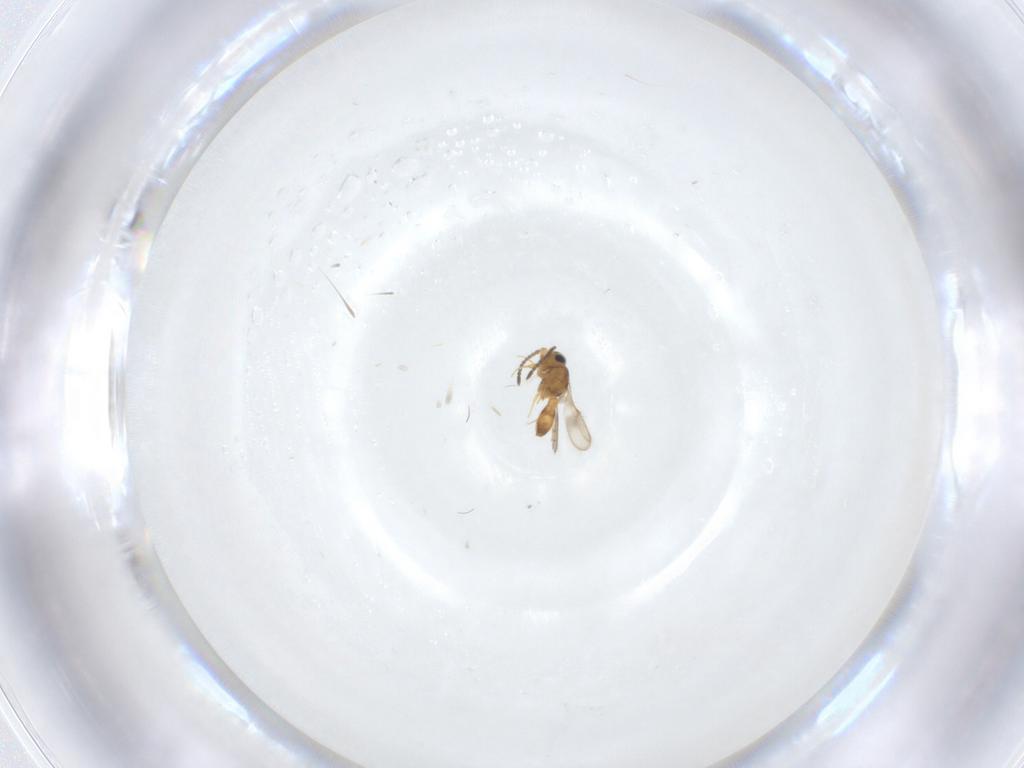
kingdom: Animalia
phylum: Arthropoda
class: Insecta
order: Hymenoptera
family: Scelionidae
